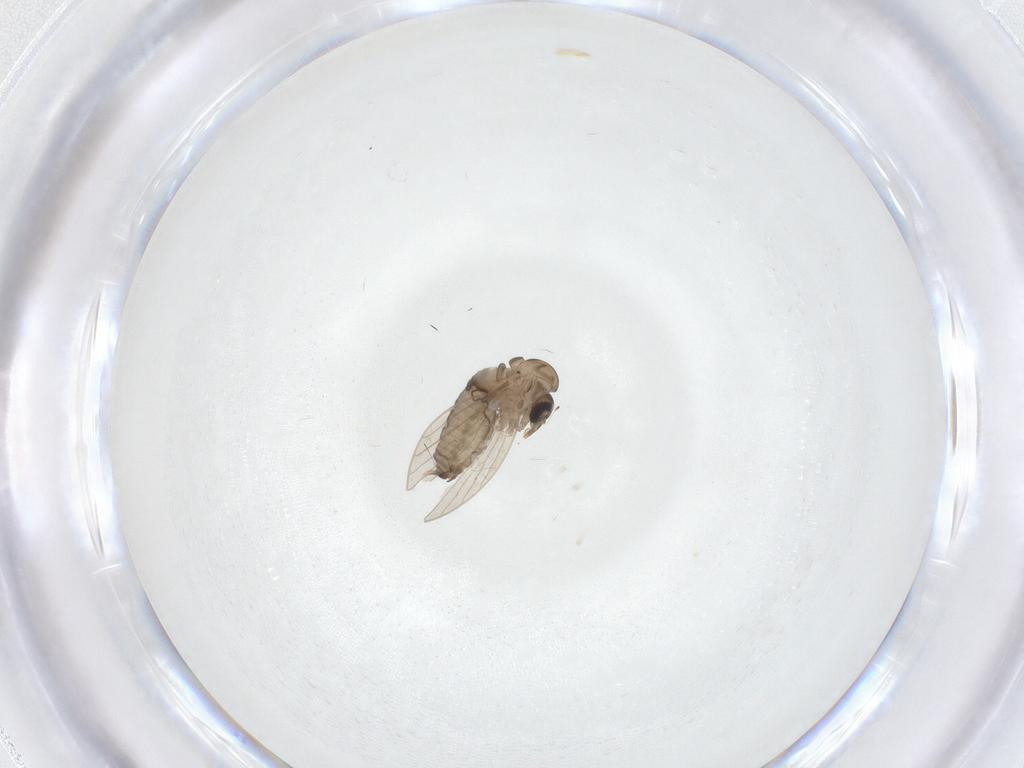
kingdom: Animalia
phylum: Arthropoda
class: Insecta
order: Diptera
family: Psychodidae
